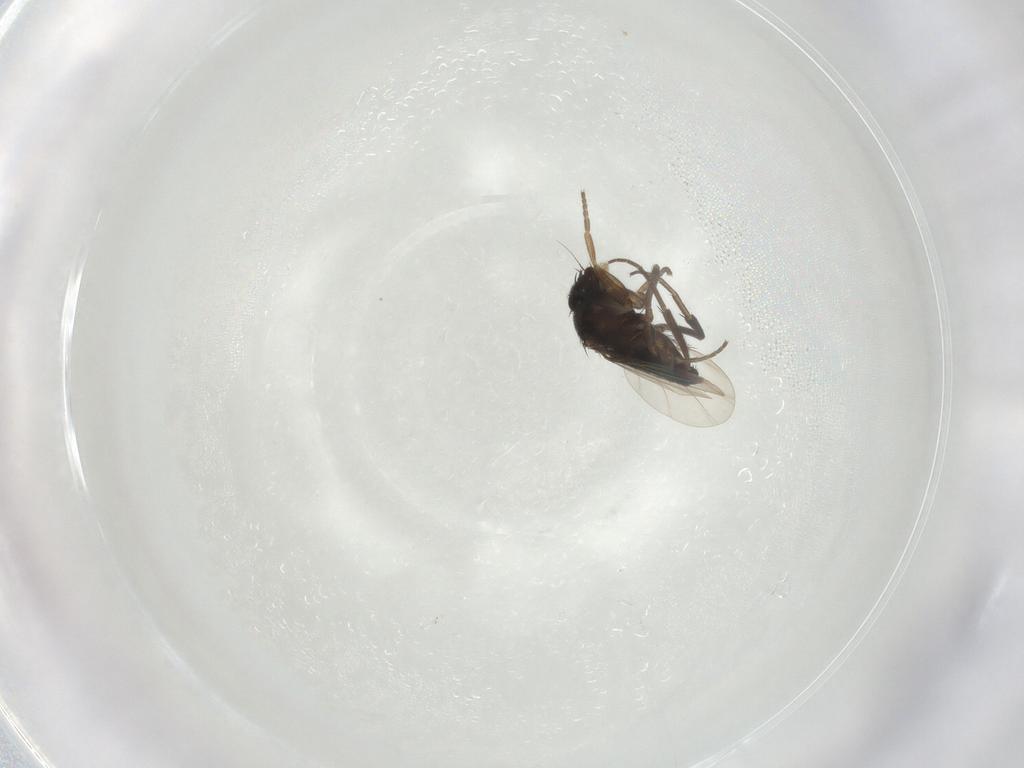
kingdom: Animalia
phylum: Arthropoda
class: Insecta
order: Diptera
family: Phoridae
